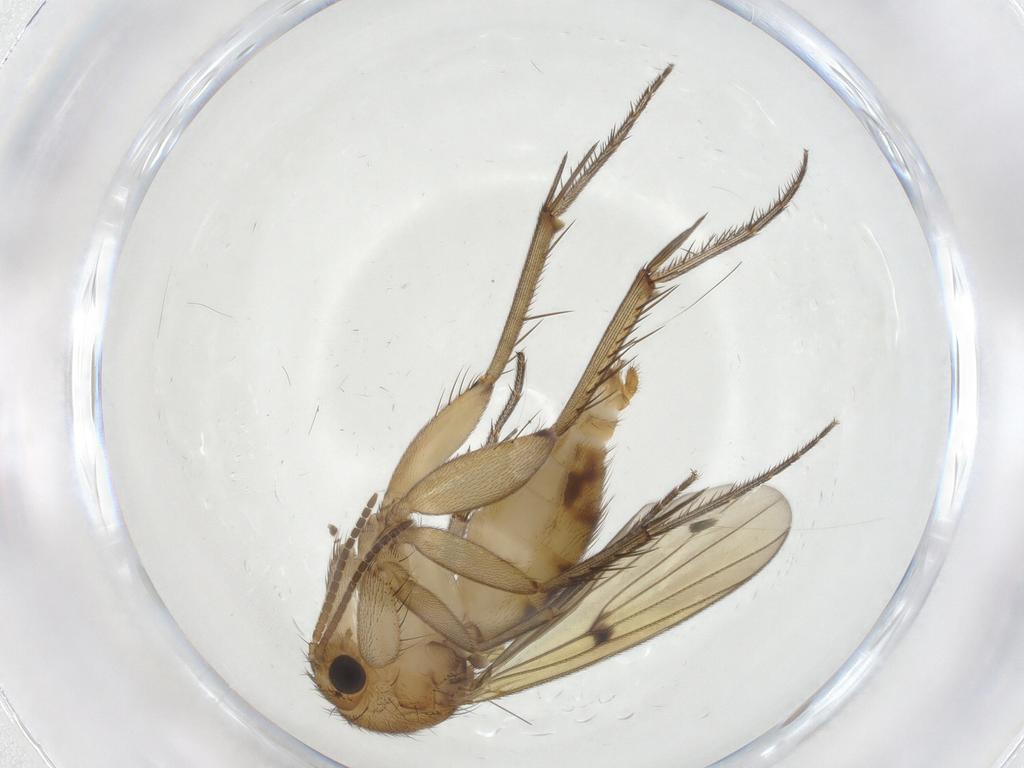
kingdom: Animalia
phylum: Arthropoda
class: Insecta
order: Diptera
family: Mycetophilidae
